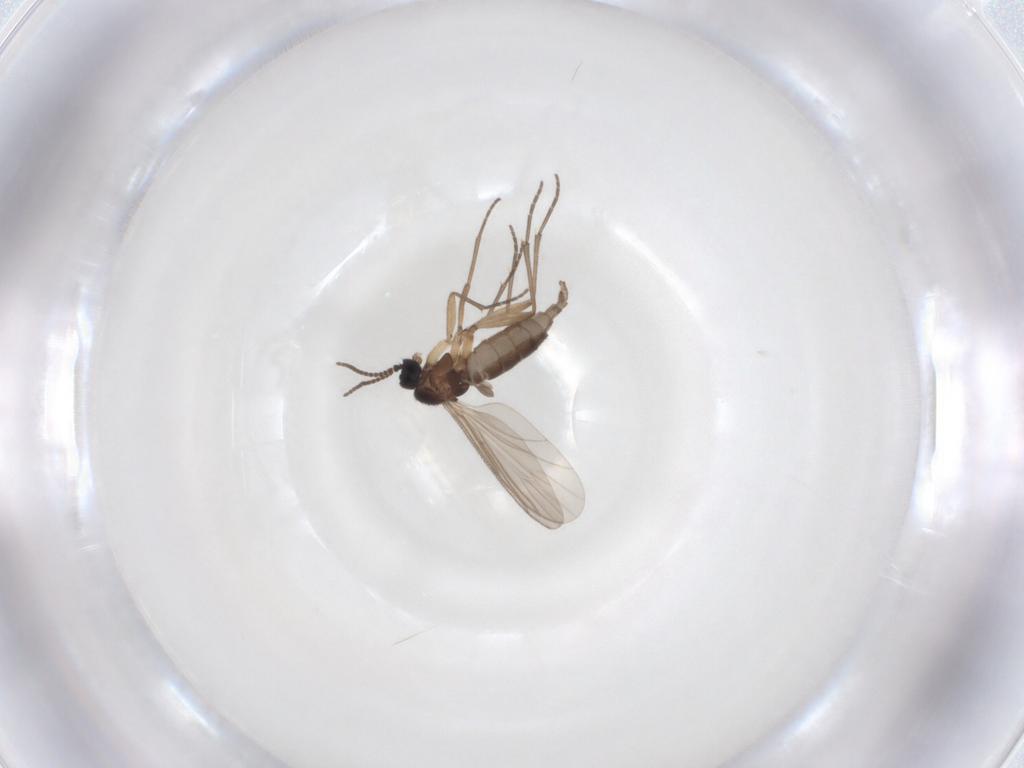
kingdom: Animalia
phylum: Arthropoda
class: Insecta
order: Diptera
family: Sciaridae
